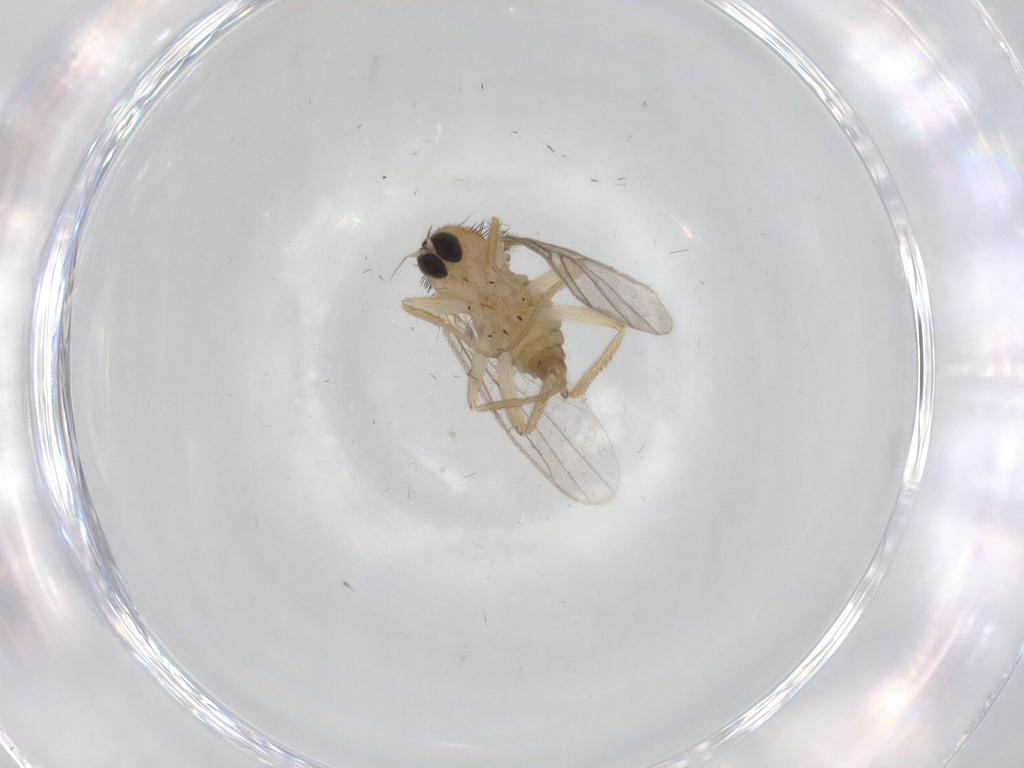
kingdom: Animalia
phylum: Arthropoda
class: Insecta
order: Diptera
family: Hybotidae
